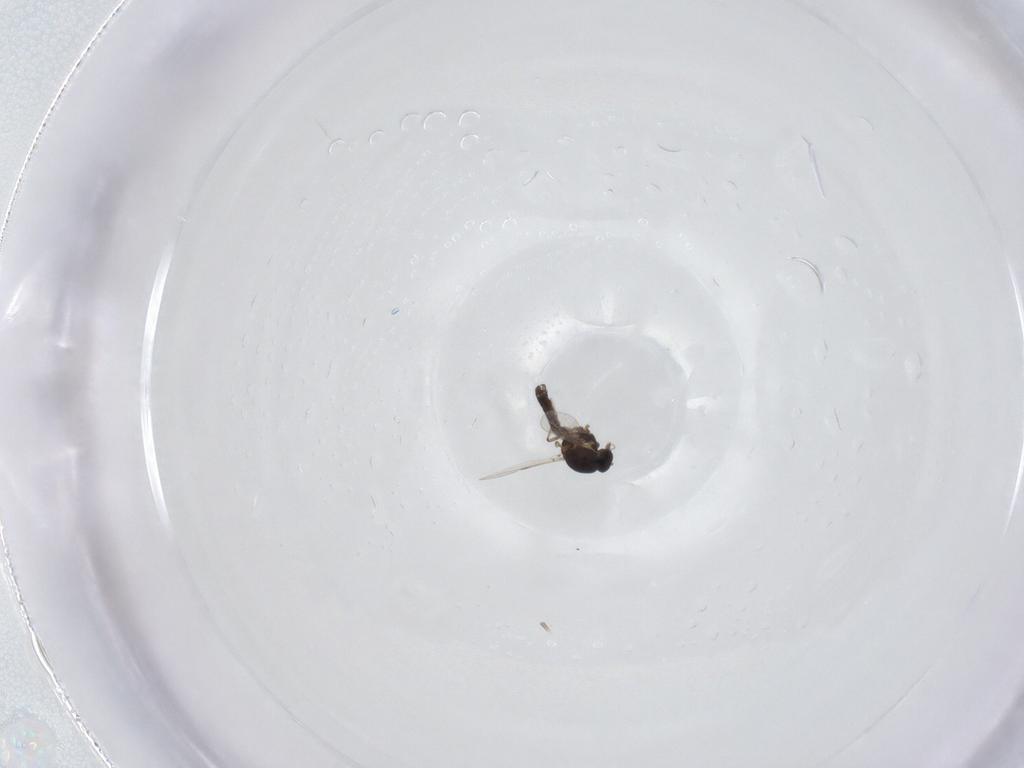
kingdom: Animalia
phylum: Arthropoda
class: Insecta
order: Diptera
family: Ceratopogonidae
